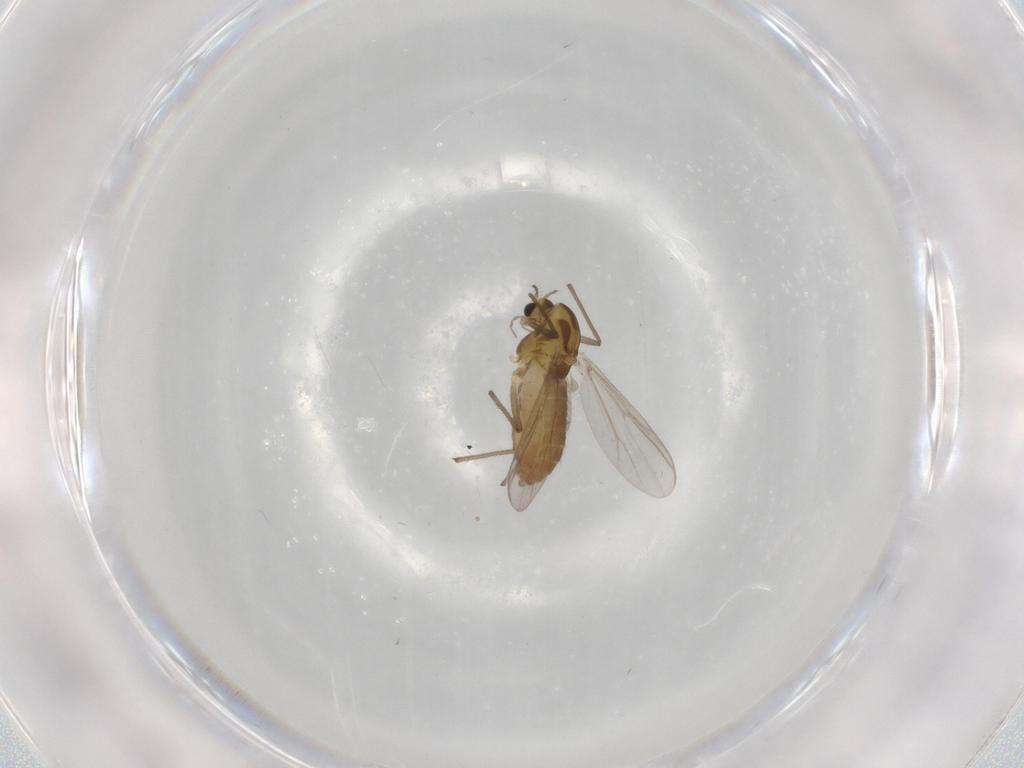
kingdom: Animalia
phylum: Arthropoda
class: Insecta
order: Diptera
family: Chironomidae
